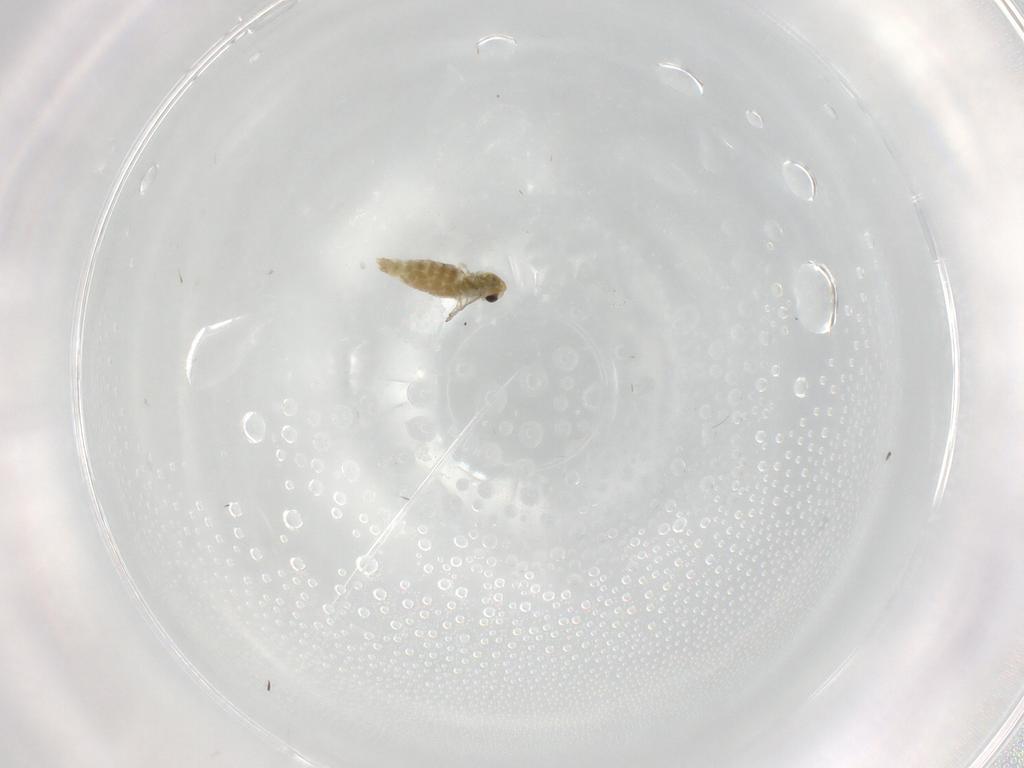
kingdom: Animalia
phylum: Arthropoda
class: Insecta
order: Diptera
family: Chironomidae
